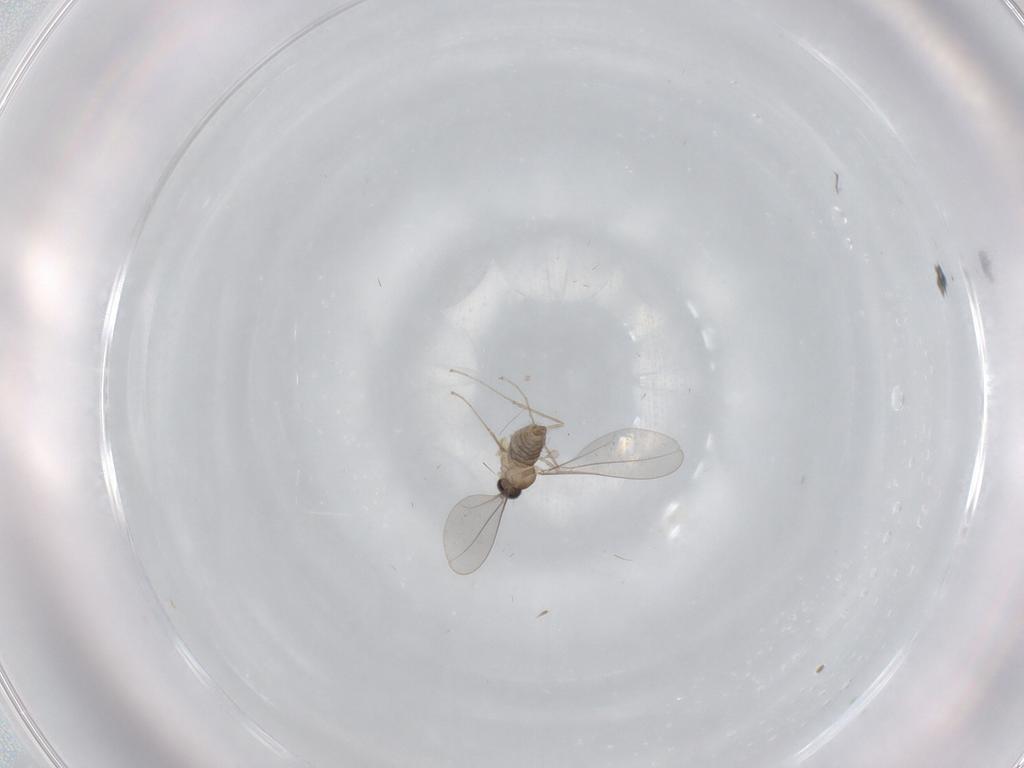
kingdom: Animalia
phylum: Arthropoda
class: Insecta
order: Diptera
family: Cecidomyiidae
